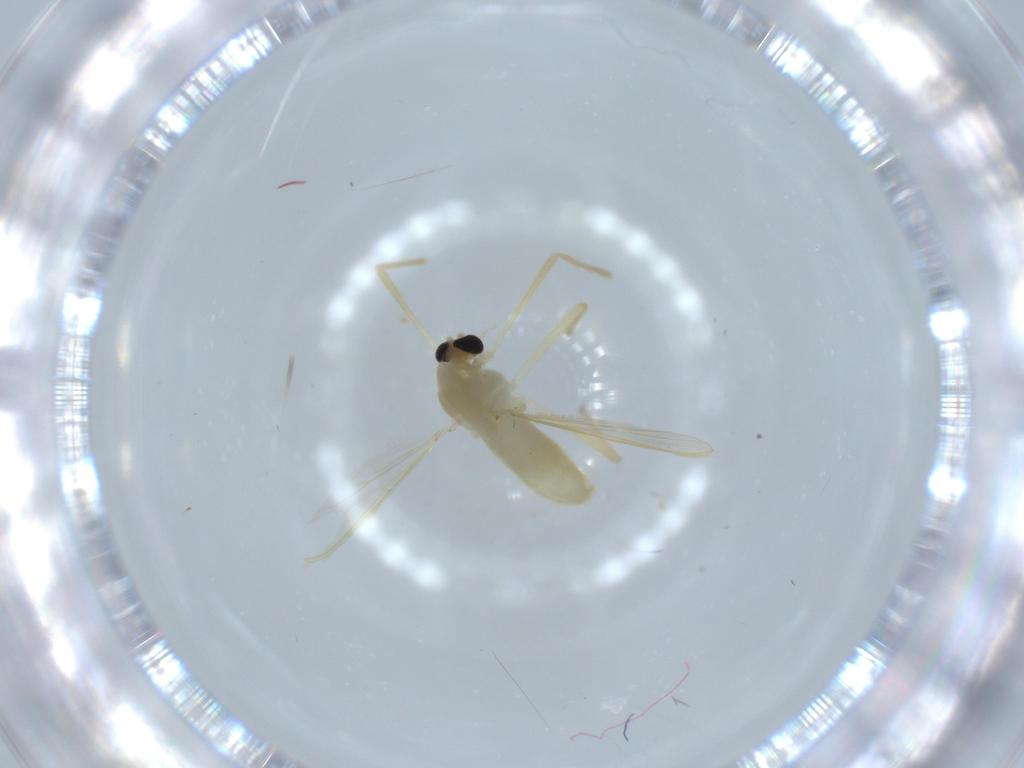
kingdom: Animalia
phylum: Arthropoda
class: Insecta
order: Diptera
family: Chironomidae
